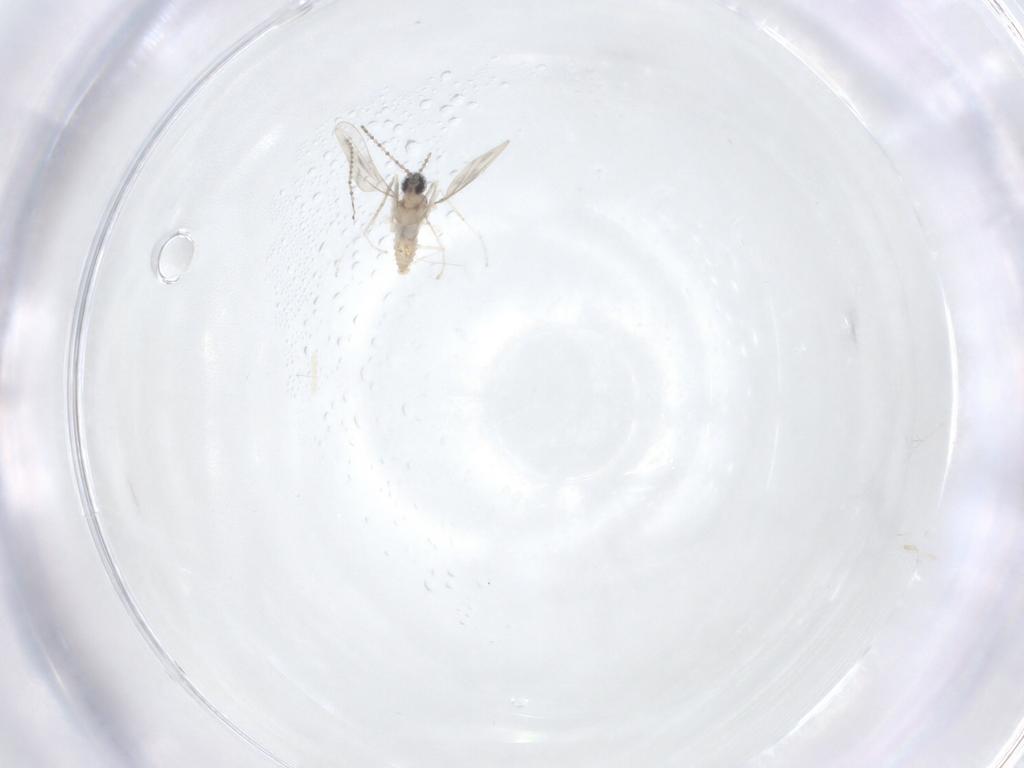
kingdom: Animalia
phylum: Arthropoda
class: Insecta
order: Diptera
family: Cecidomyiidae
